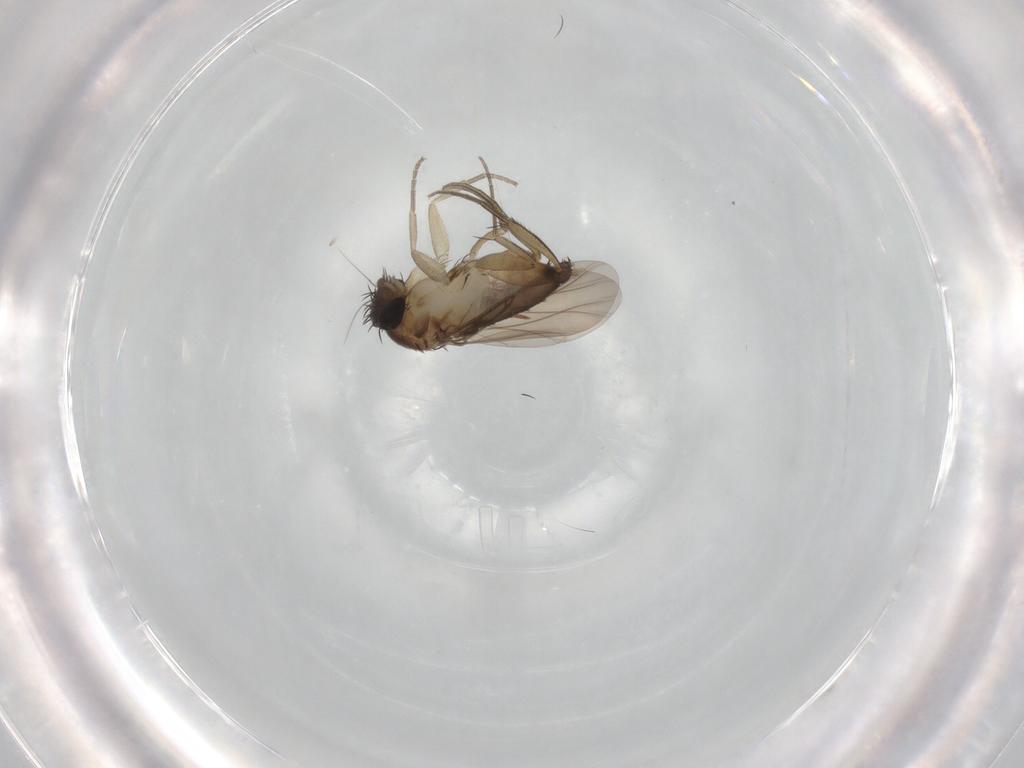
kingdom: Animalia
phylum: Arthropoda
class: Insecta
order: Diptera
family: Phoridae
